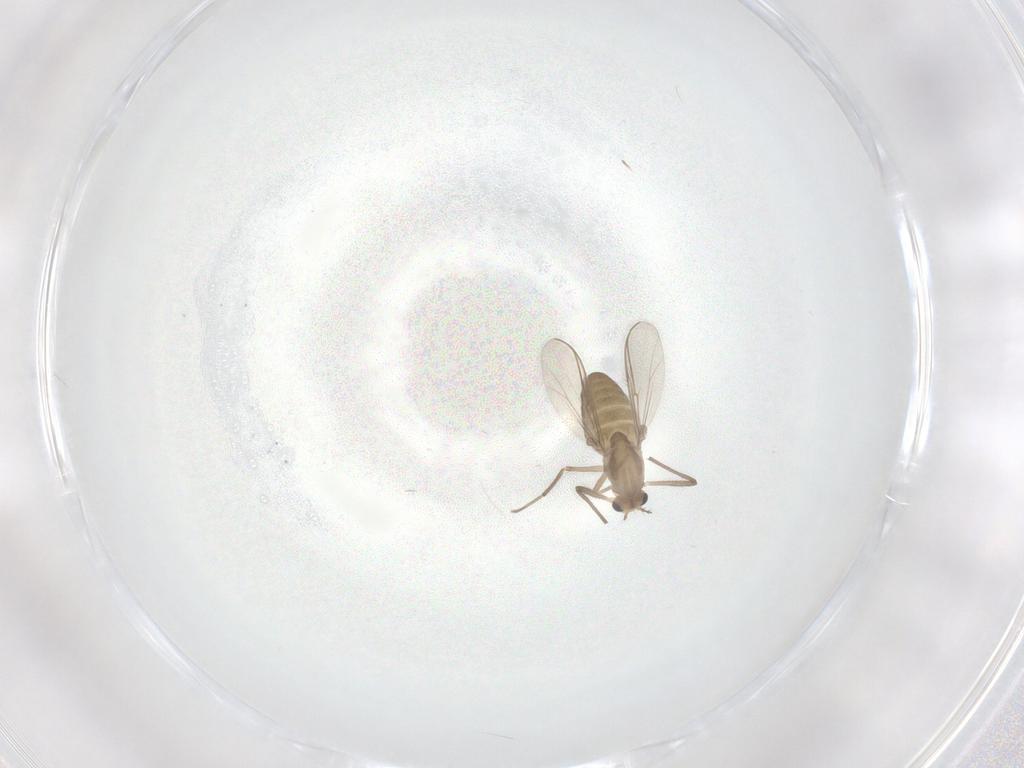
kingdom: Animalia
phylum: Arthropoda
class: Insecta
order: Diptera
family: Chironomidae
